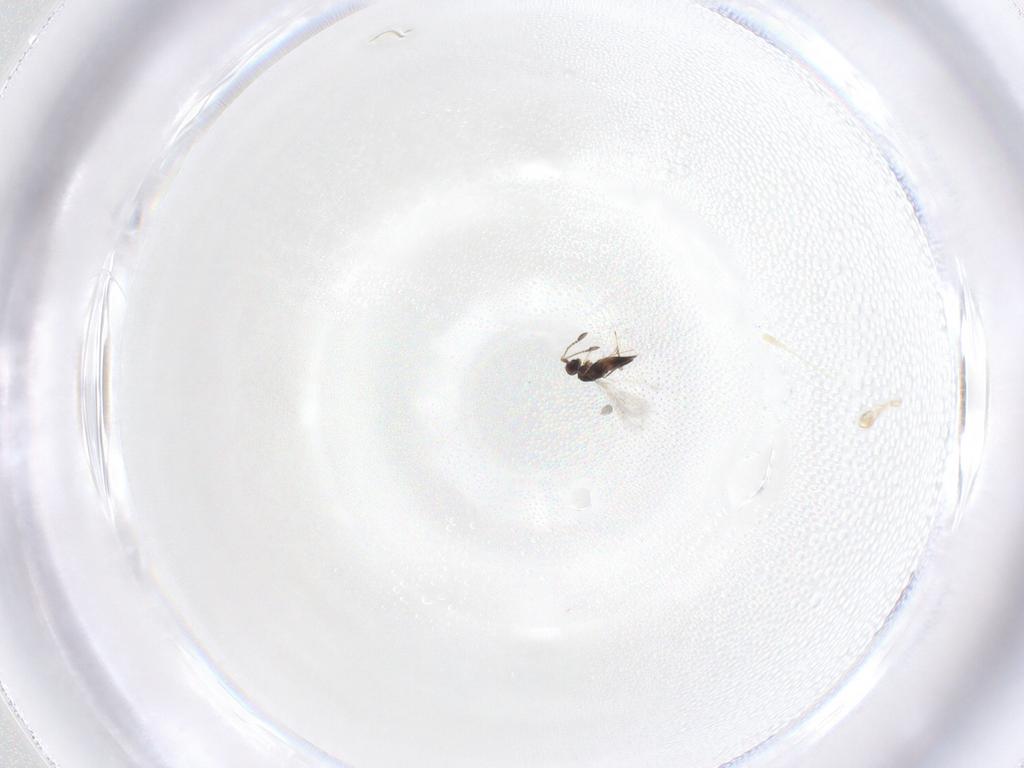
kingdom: Animalia
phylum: Arthropoda
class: Insecta
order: Hymenoptera
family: Mymaridae
